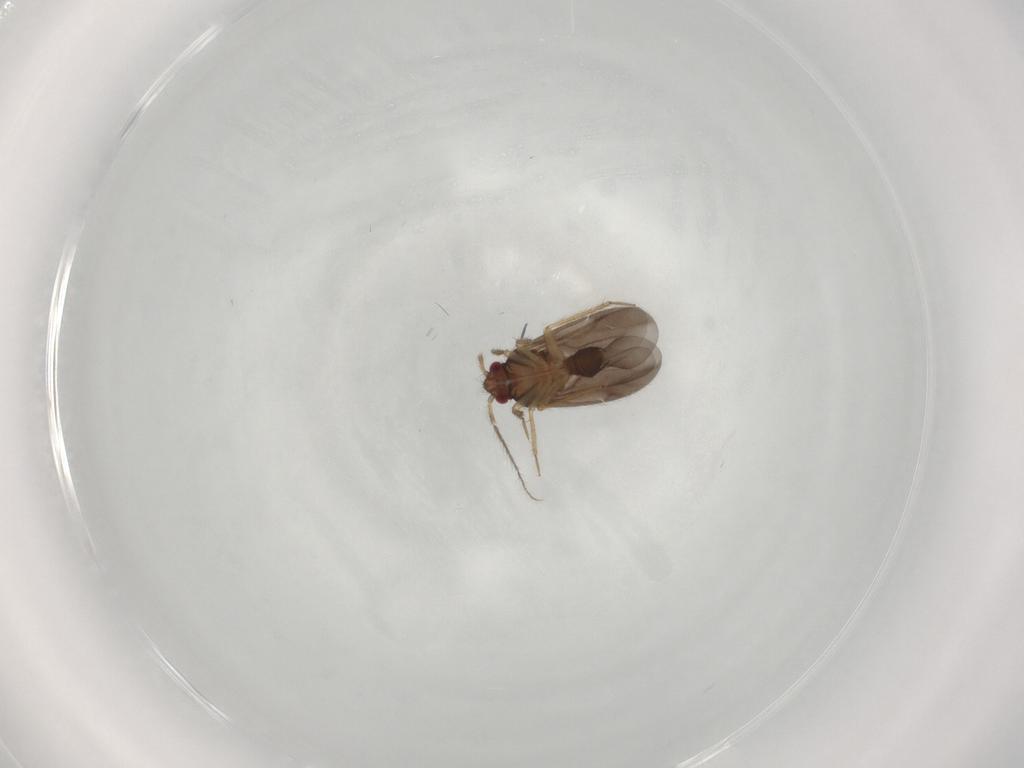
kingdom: Animalia
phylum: Arthropoda
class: Insecta
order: Hemiptera
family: Ceratocombidae
